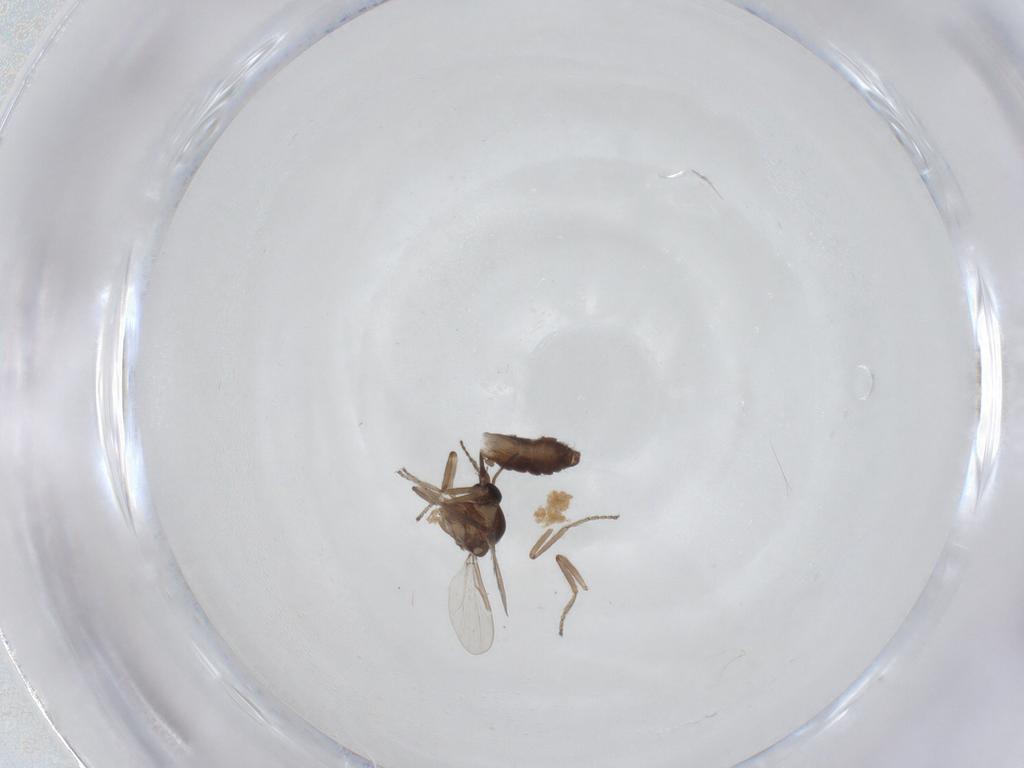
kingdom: Animalia
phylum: Arthropoda
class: Insecta
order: Diptera
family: Ceratopogonidae
